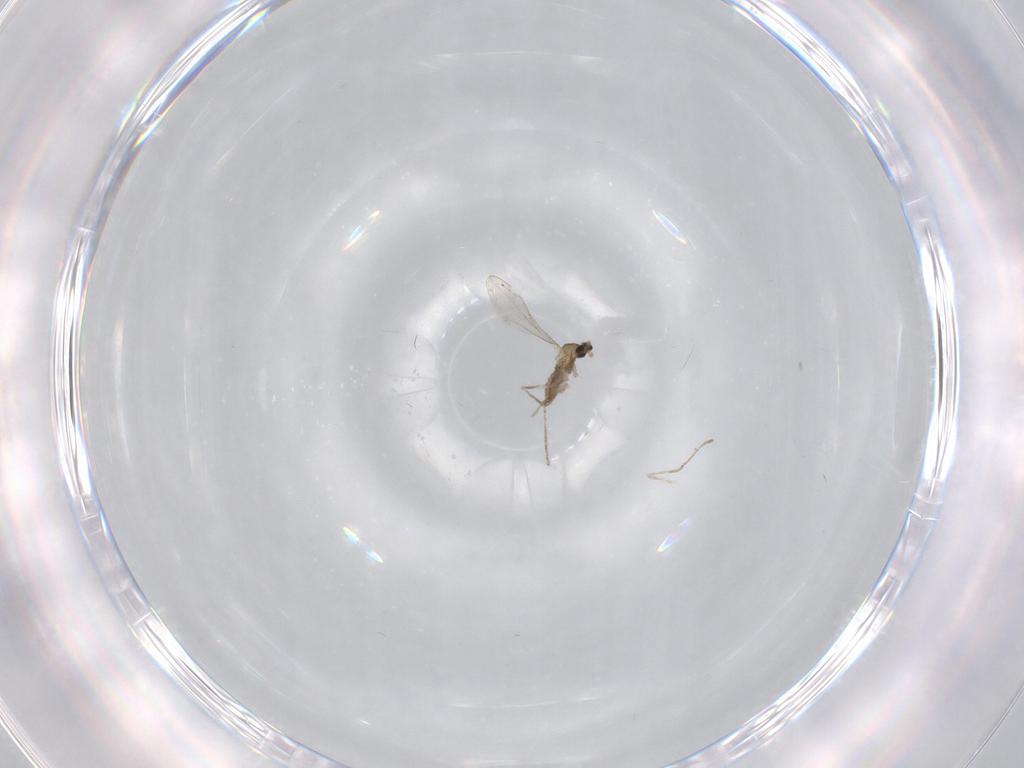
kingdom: Animalia
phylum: Arthropoda
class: Insecta
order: Diptera
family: Cecidomyiidae
